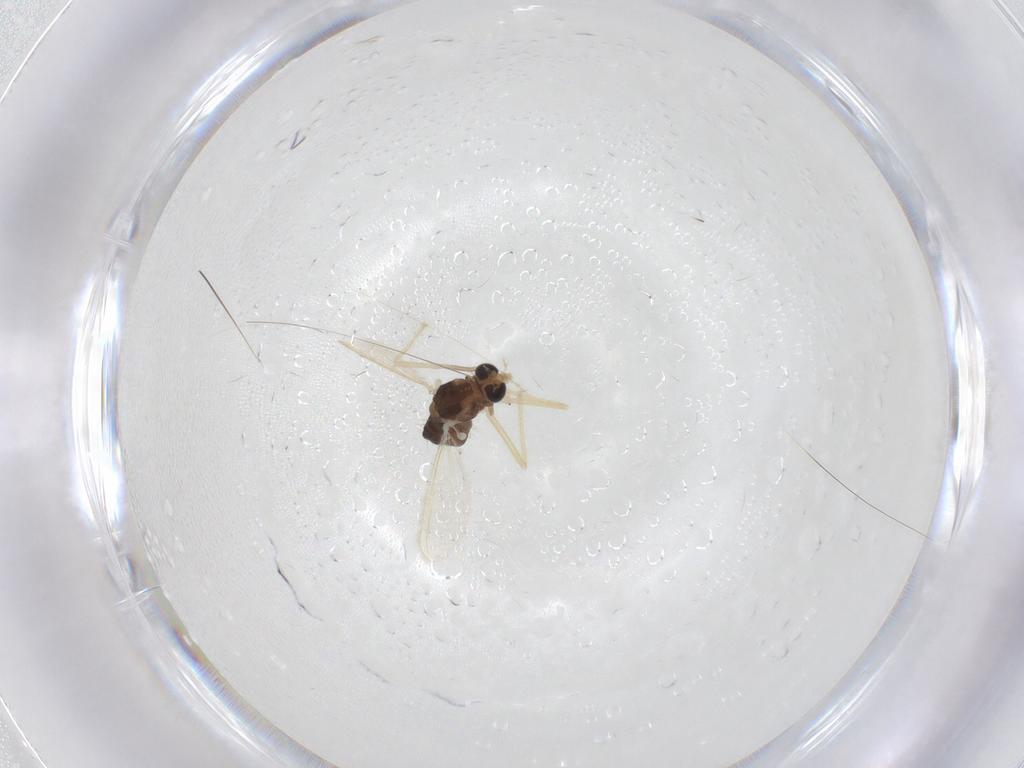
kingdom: Animalia
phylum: Arthropoda
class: Insecta
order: Diptera
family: Chironomidae
